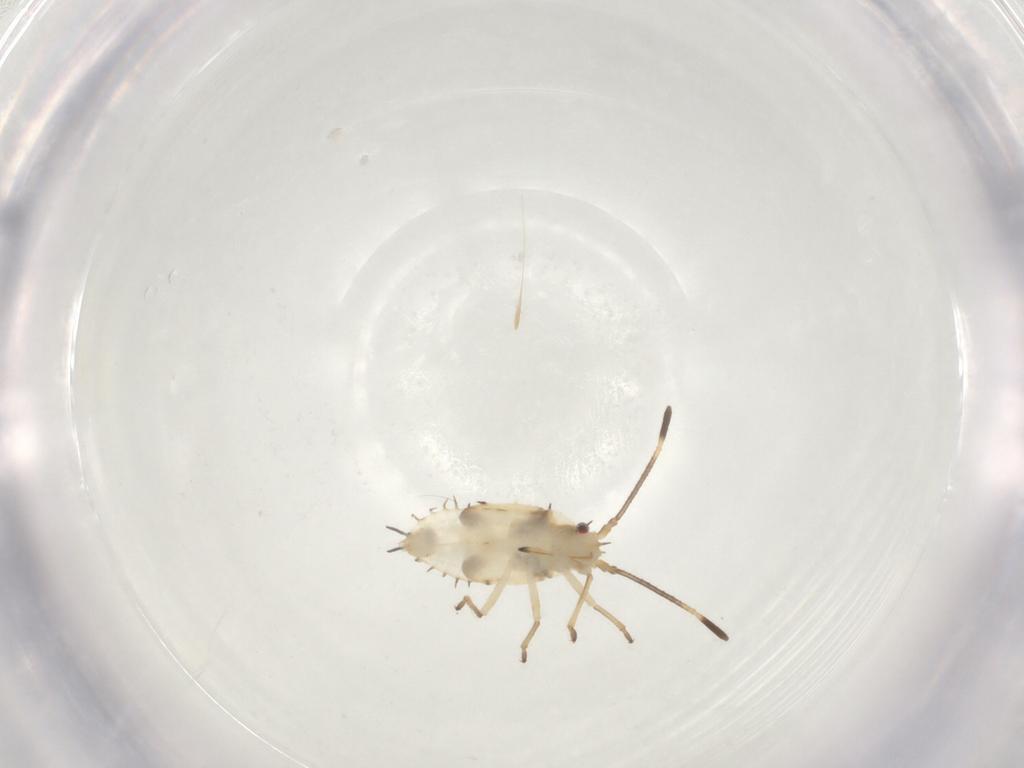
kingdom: Animalia
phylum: Arthropoda
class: Insecta
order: Hemiptera
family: Tingidae
